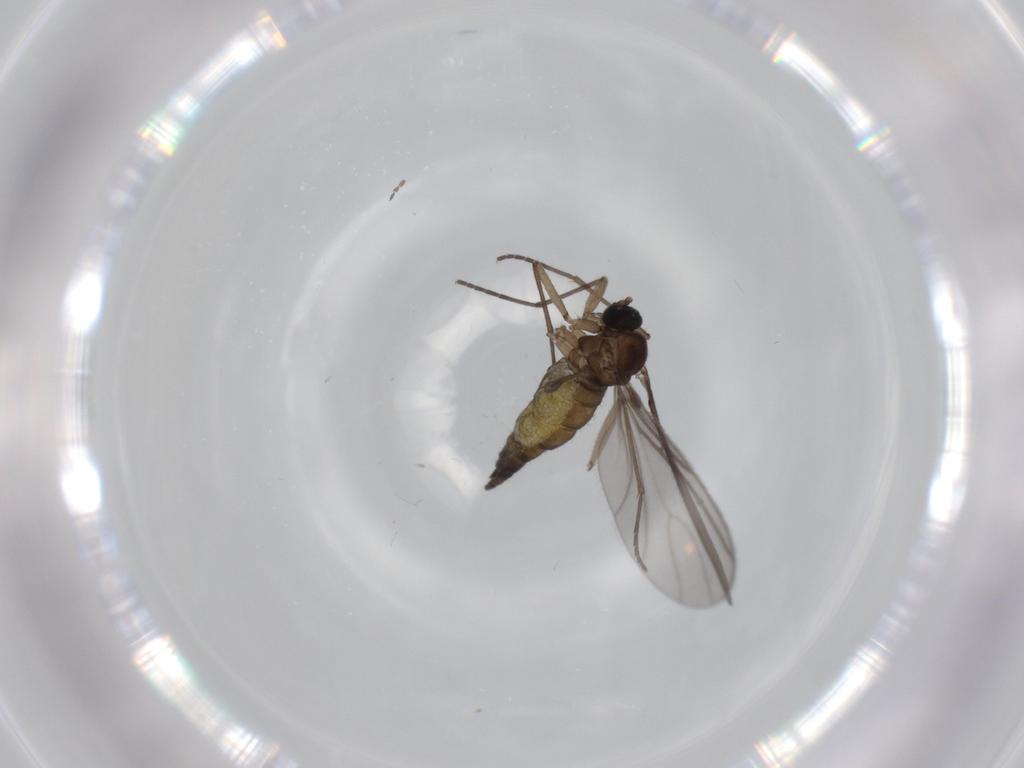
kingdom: Animalia
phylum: Arthropoda
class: Insecta
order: Diptera
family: Sciaridae
